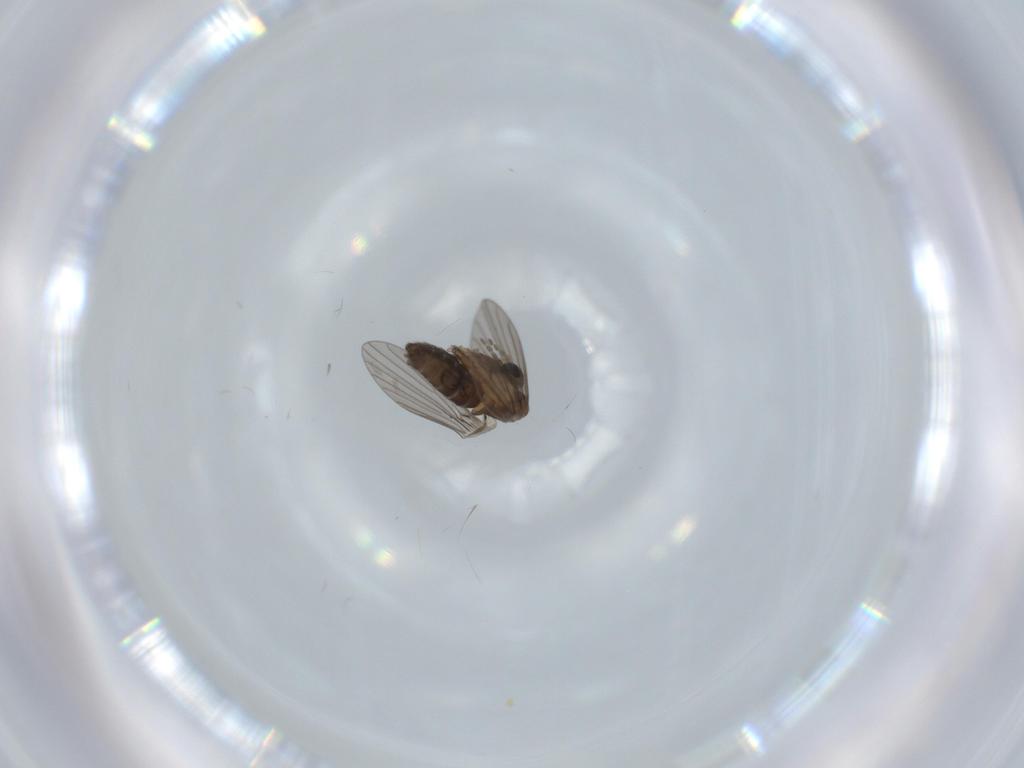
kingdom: Animalia
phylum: Arthropoda
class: Insecta
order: Diptera
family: Psychodidae
